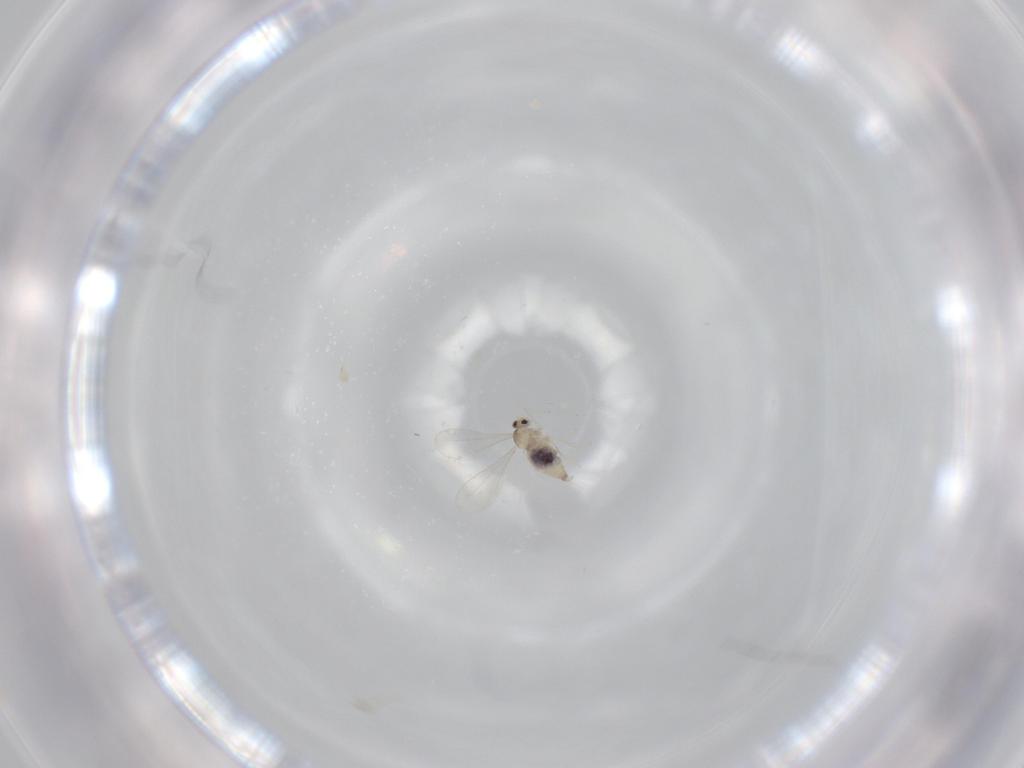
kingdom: Animalia
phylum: Arthropoda
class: Insecta
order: Diptera
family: Cecidomyiidae
